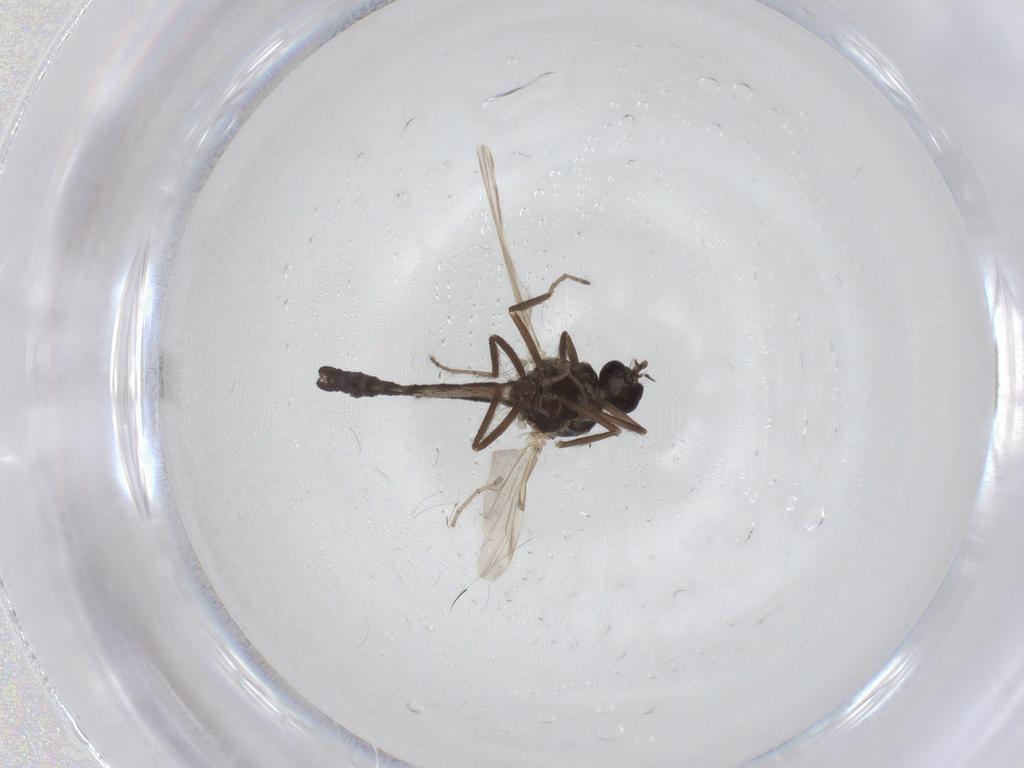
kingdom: Animalia
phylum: Arthropoda
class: Insecta
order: Diptera
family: Ceratopogonidae
